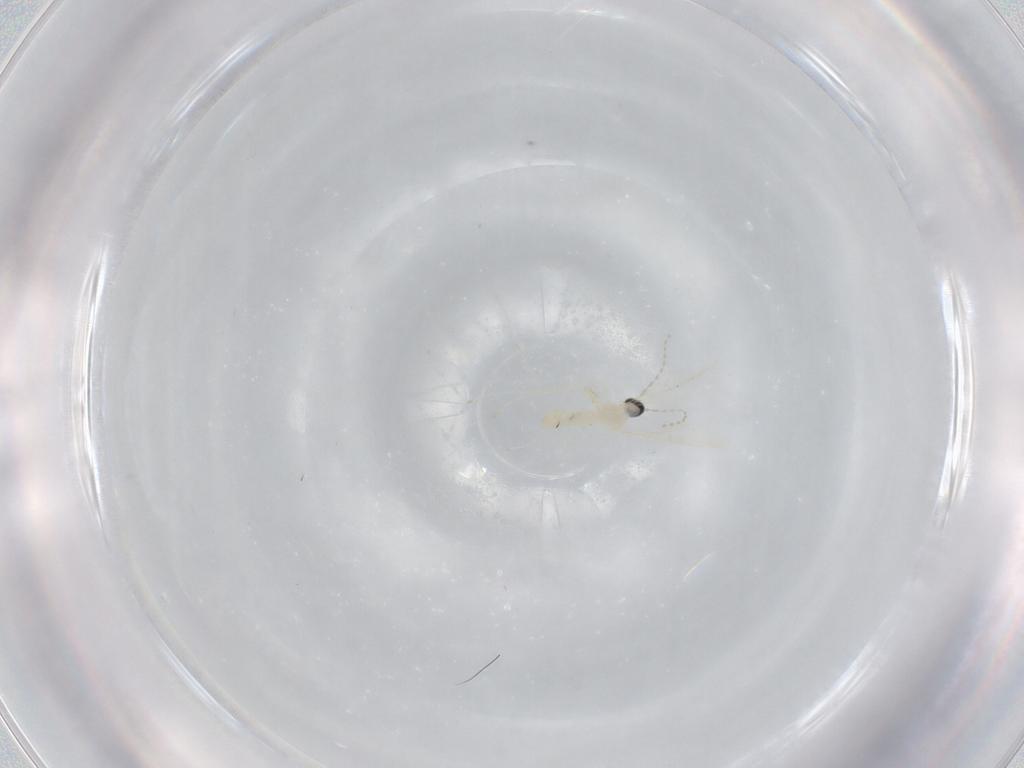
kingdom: Animalia
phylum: Arthropoda
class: Insecta
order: Diptera
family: Cecidomyiidae
